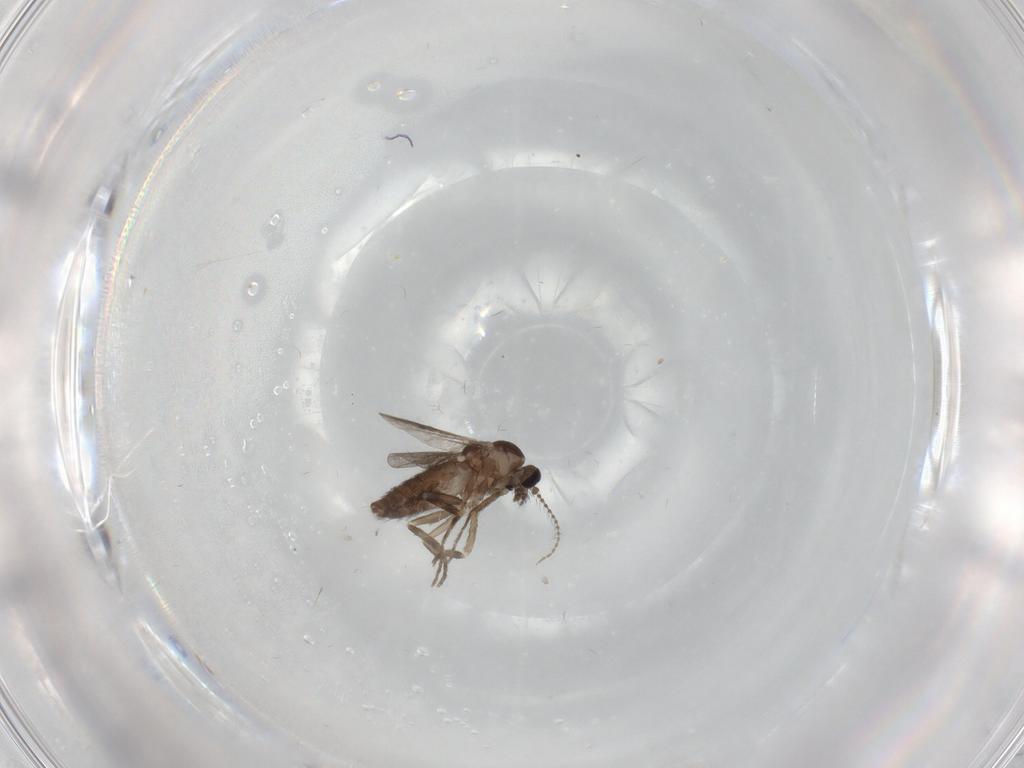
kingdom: Animalia
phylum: Arthropoda
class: Insecta
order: Diptera
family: Ceratopogonidae
